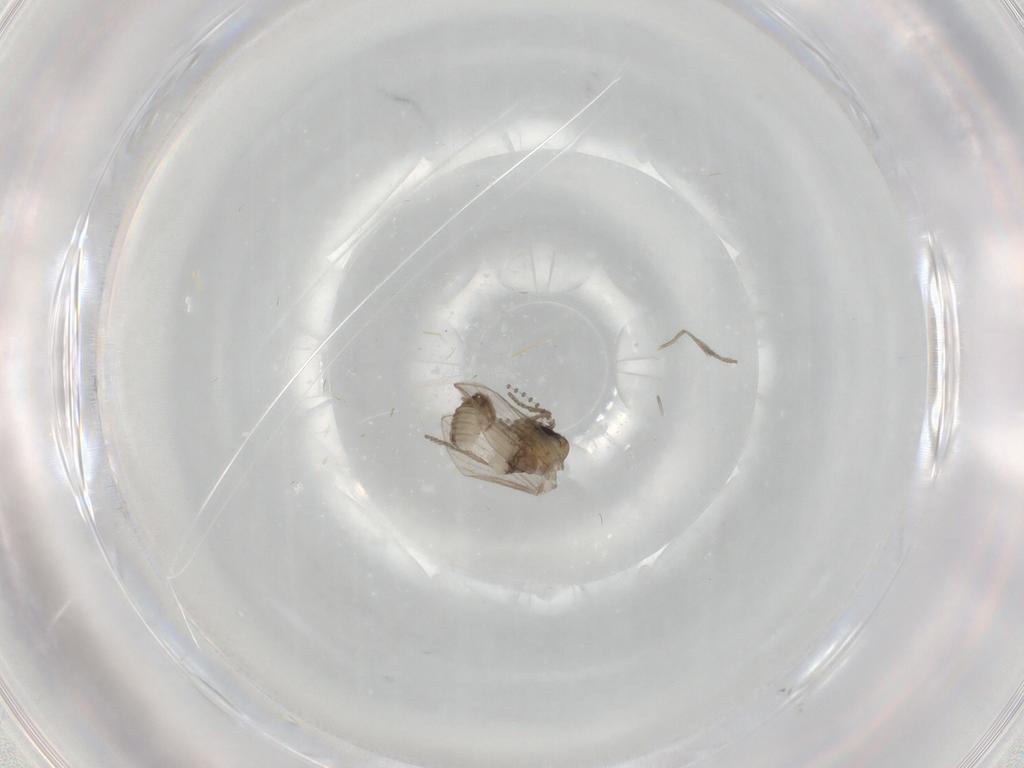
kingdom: Animalia
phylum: Arthropoda
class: Insecta
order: Diptera
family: Psychodidae
